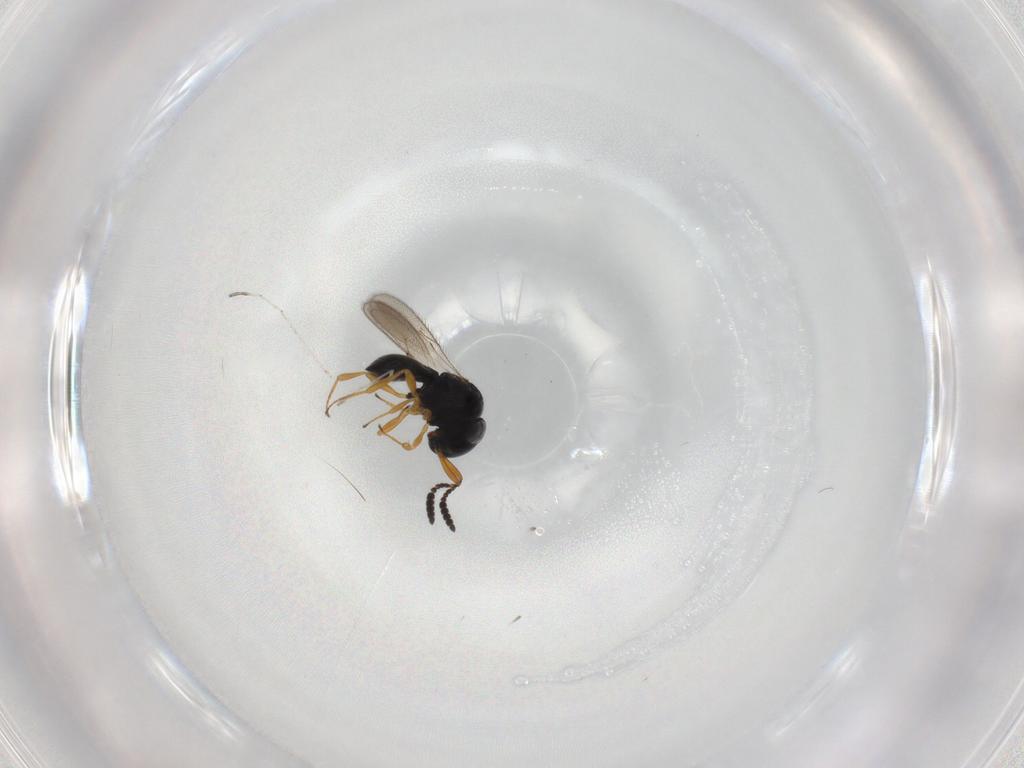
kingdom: Animalia
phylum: Arthropoda
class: Insecta
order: Hymenoptera
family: Scelionidae
